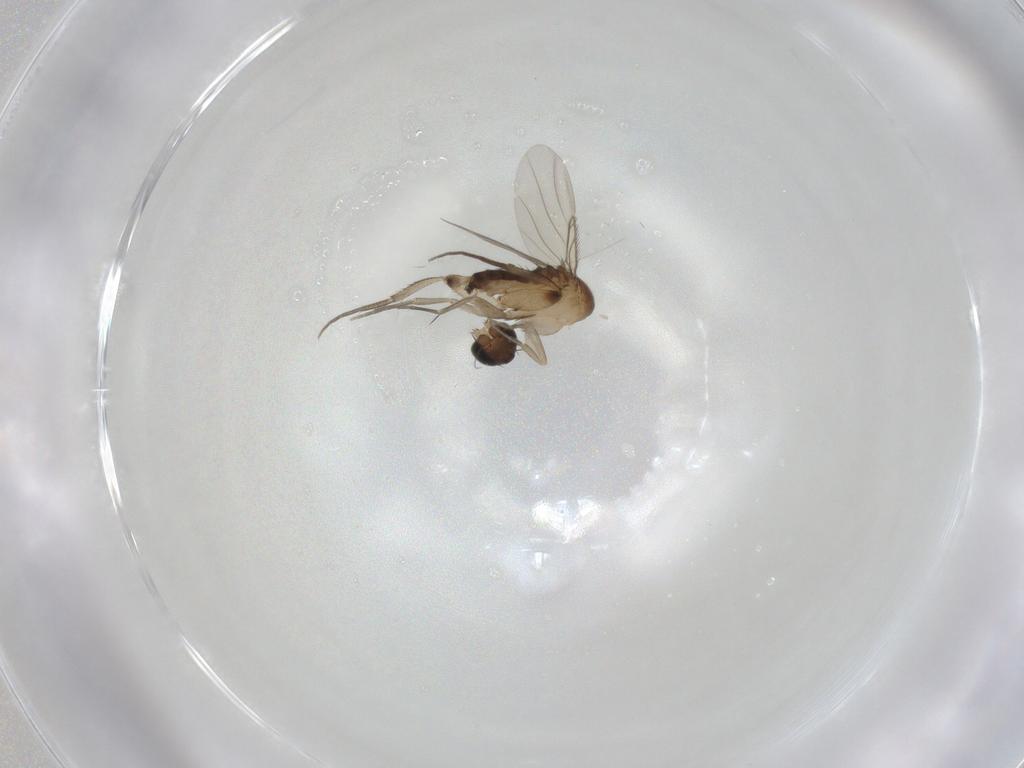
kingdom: Animalia
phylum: Arthropoda
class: Insecta
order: Diptera
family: Phoridae
